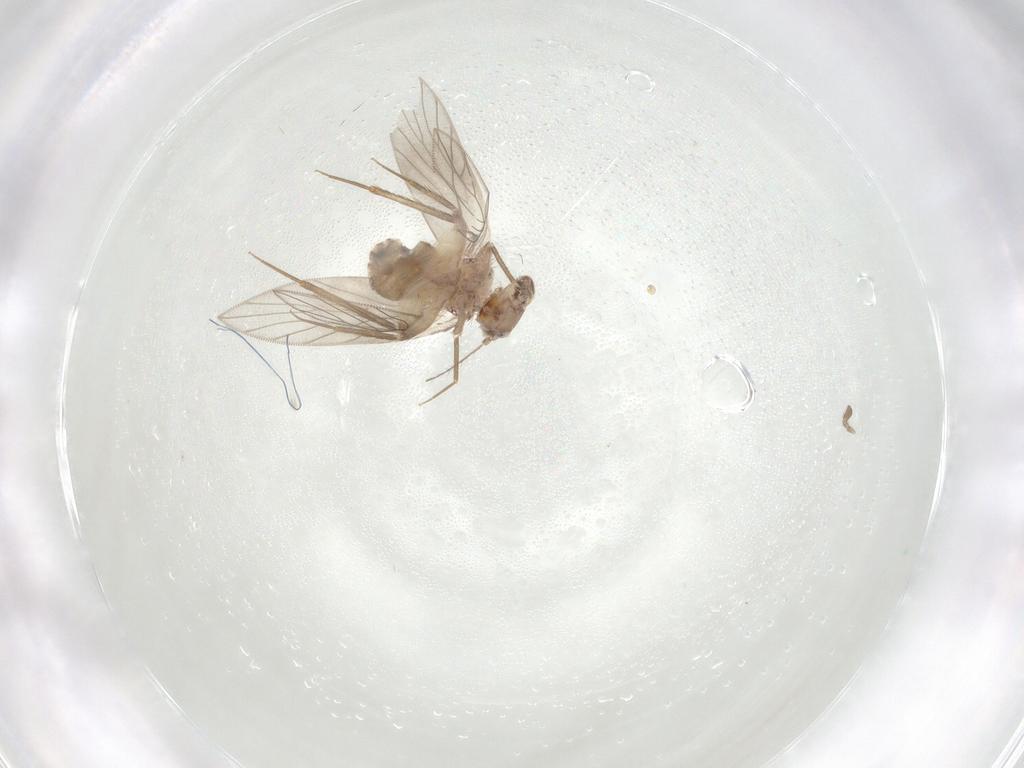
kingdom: Animalia
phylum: Arthropoda
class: Insecta
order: Psocodea
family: Lepidopsocidae
